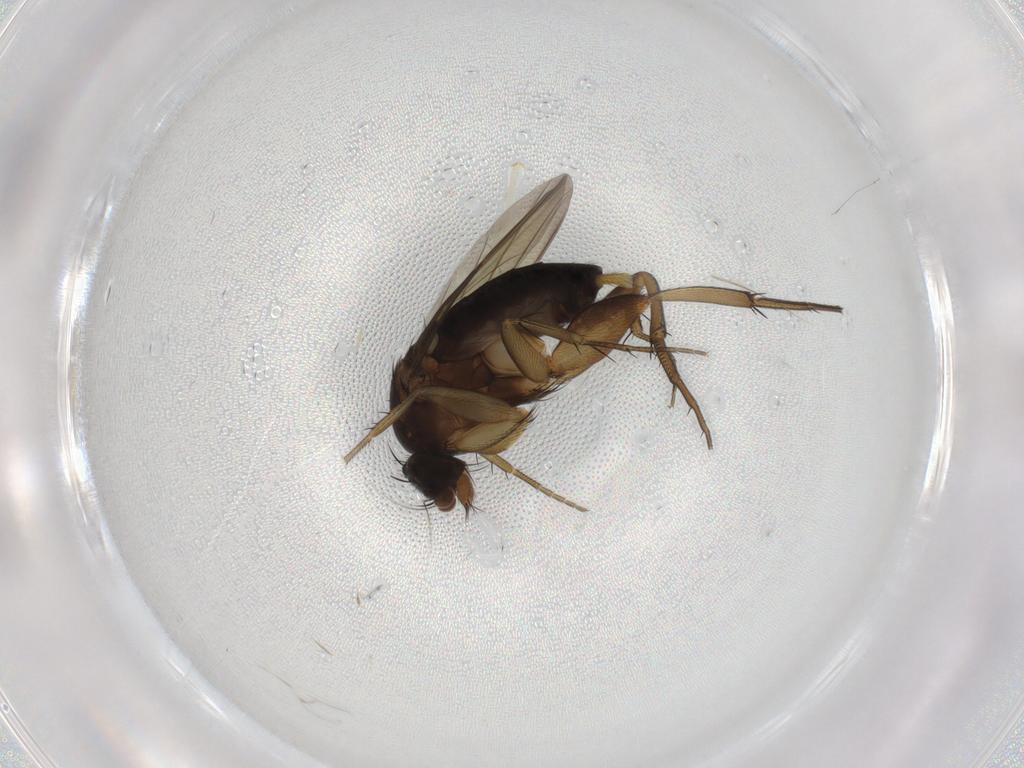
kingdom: Animalia
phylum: Arthropoda
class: Insecta
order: Diptera
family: Phoridae
